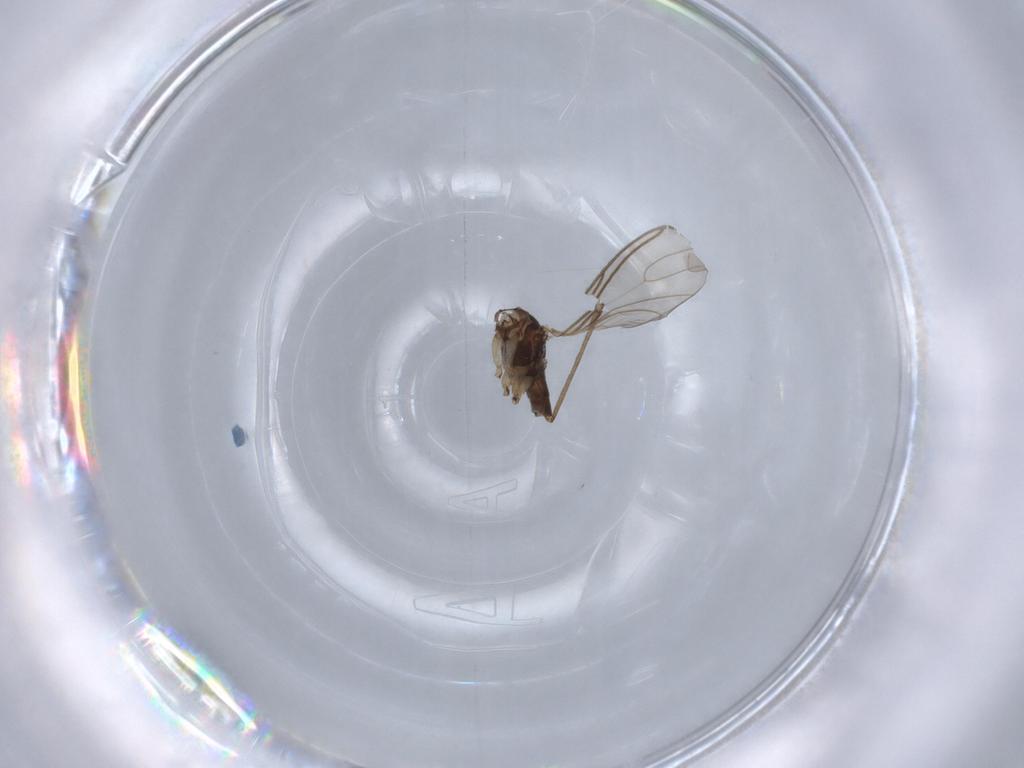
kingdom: Animalia
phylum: Arthropoda
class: Insecta
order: Diptera
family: Sciaridae
